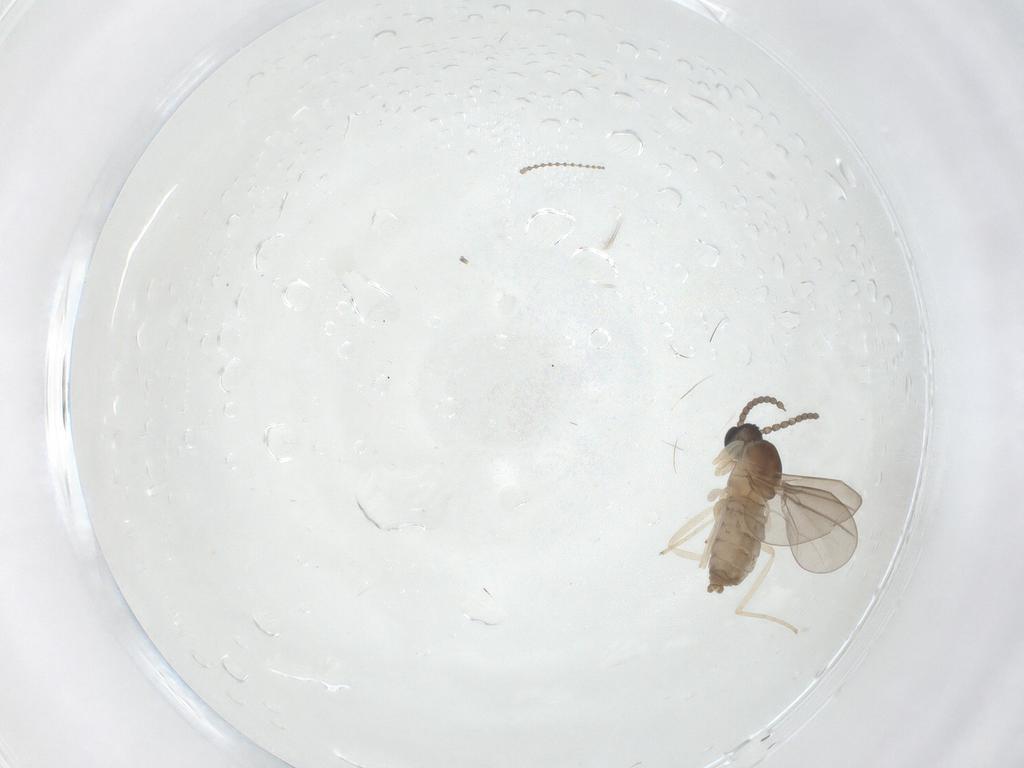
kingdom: Animalia
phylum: Arthropoda
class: Insecta
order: Diptera
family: Cecidomyiidae
